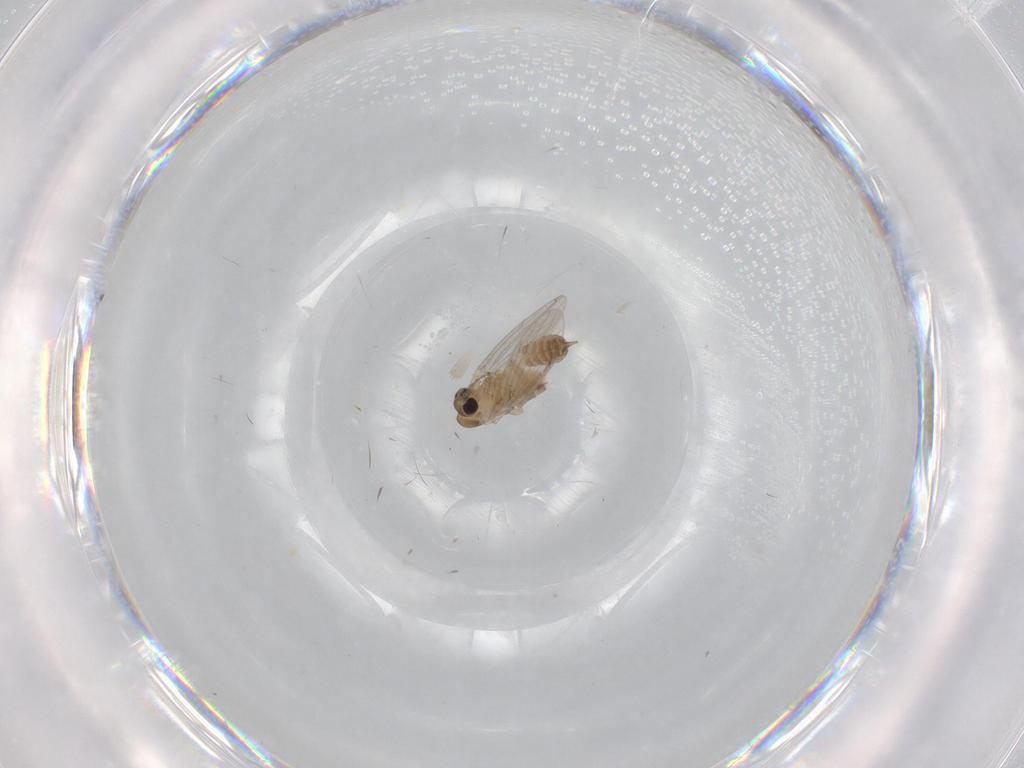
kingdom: Animalia
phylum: Arthropoda
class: Insecta
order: Diptera
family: Psychodidae
